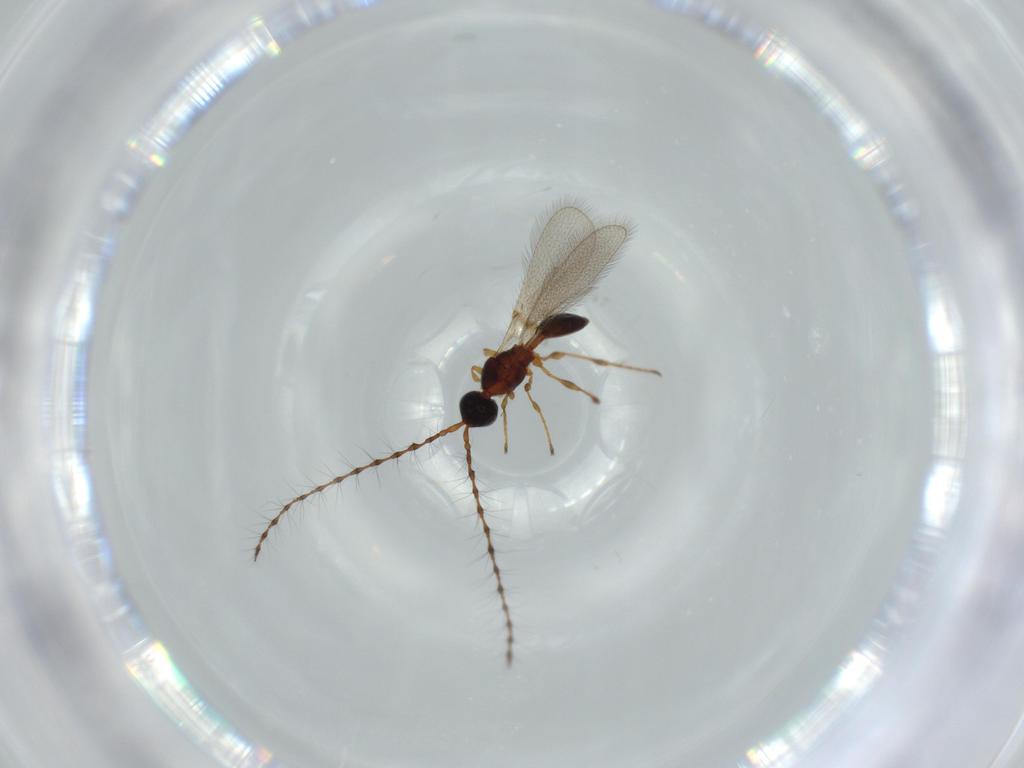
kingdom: Animalia
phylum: Arthropoda
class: Insecta
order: Hymenoptera
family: Diapriidae
